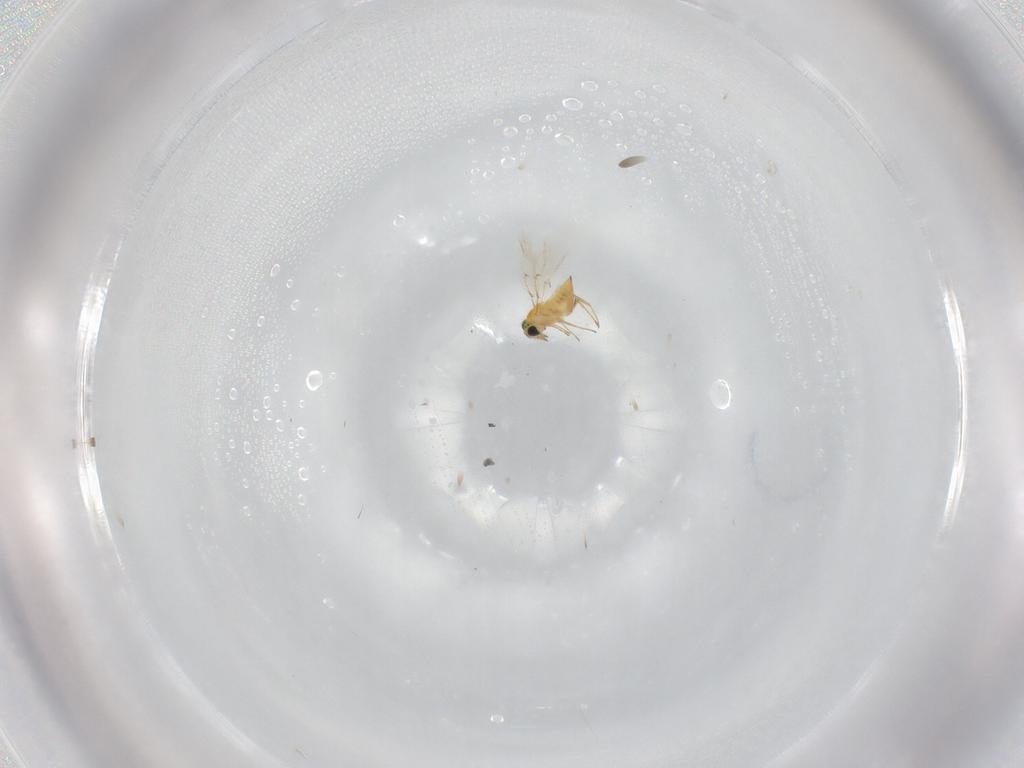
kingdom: Animalia
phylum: Arthropoda
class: Insecta
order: Hymenoptera
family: Trichogrammatidae
